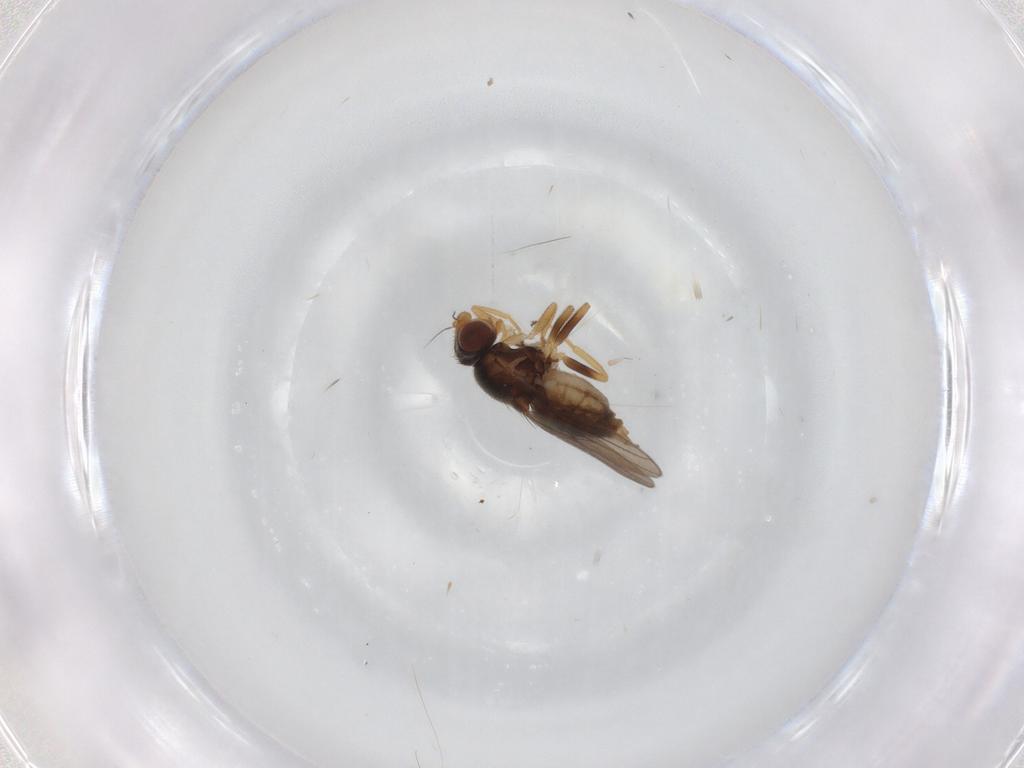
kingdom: Animalia
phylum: Arthropoda
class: Insecta
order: Diptera
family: Chloropidae
